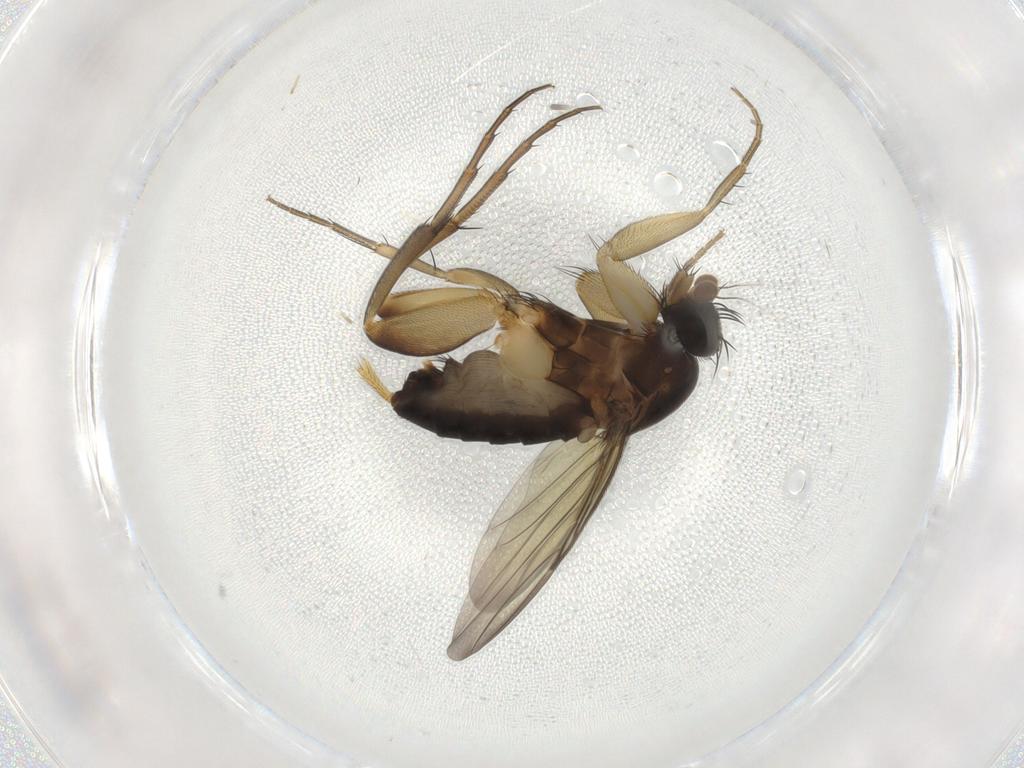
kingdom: Animalia
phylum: Arthropoda
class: Insecta
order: Diptera
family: Phoridae
